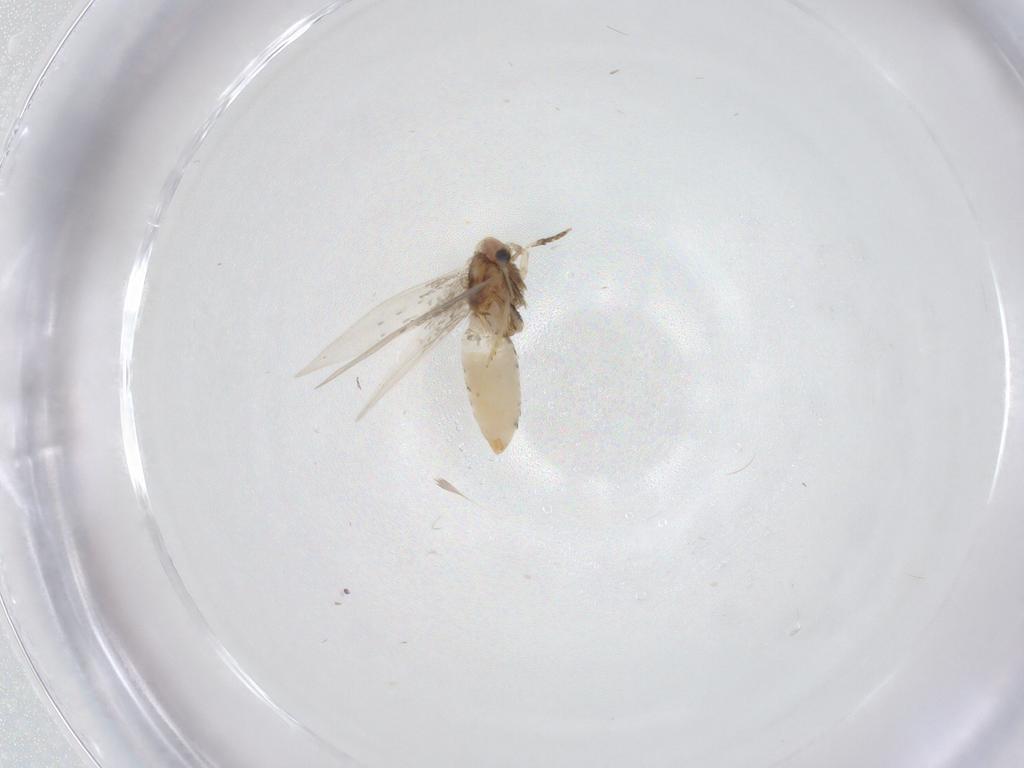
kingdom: Animalia
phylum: Arthropoda
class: Insecta
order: Lepidoptera
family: Nepticulidae
